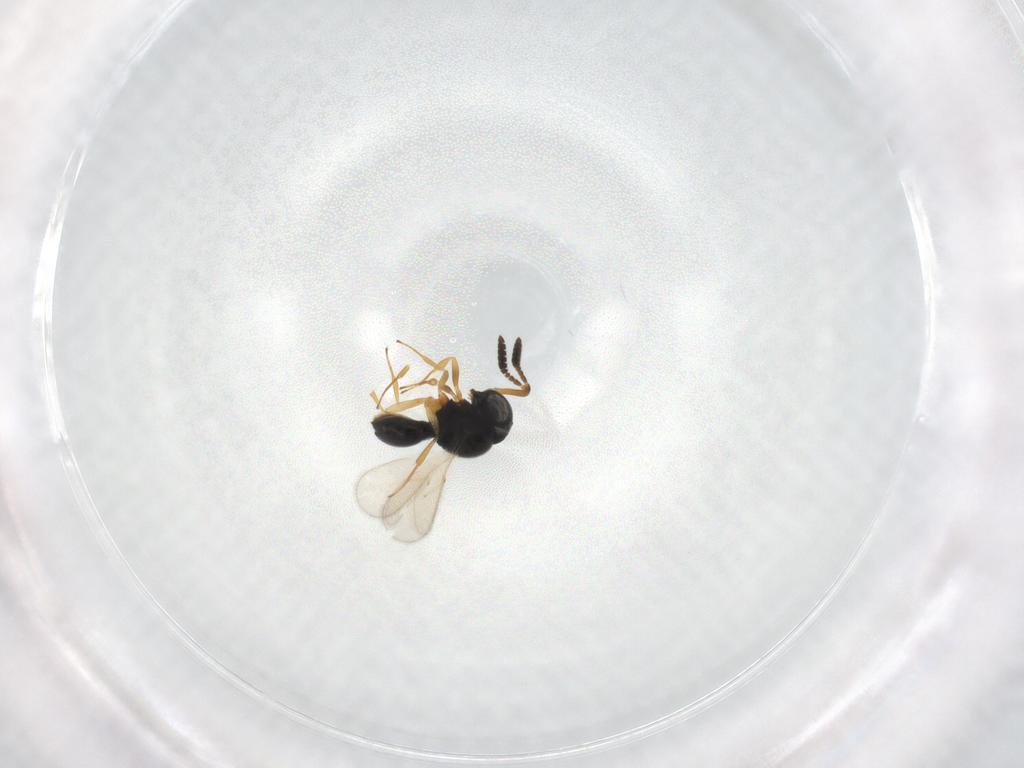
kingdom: Animalia
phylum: Arthropoda
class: Insecta
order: Hymenoptera
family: Scelionidae
